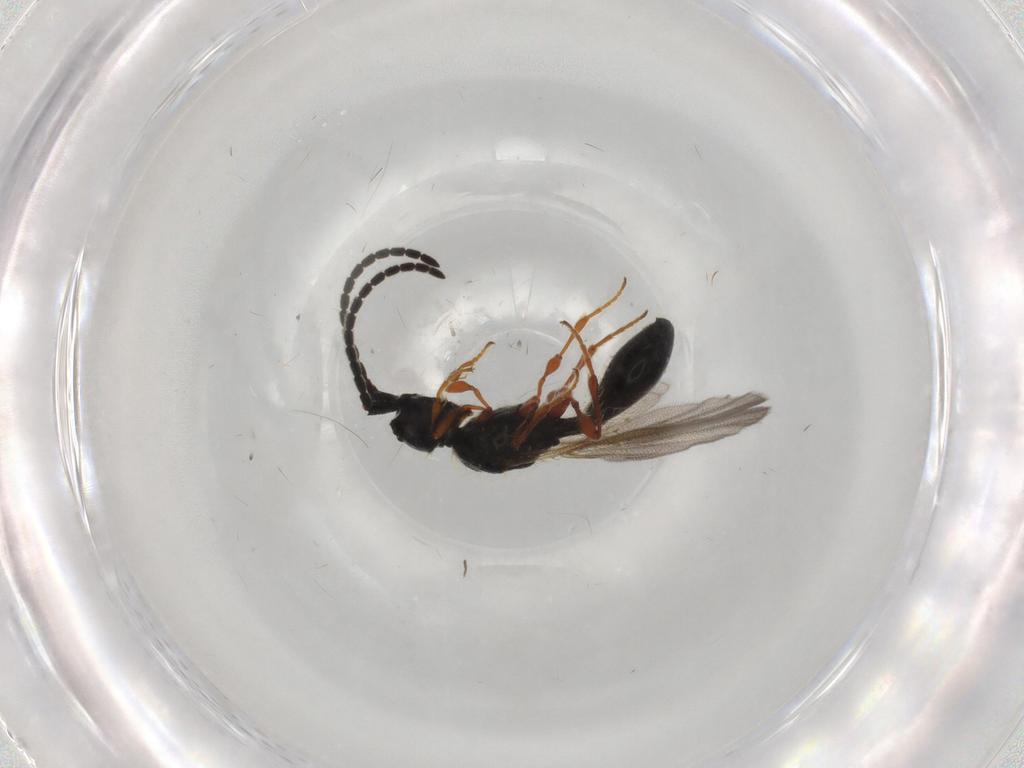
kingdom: Animalia
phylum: Arthropoda
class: Insecta
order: Hymenoptera
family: Diapriidae
